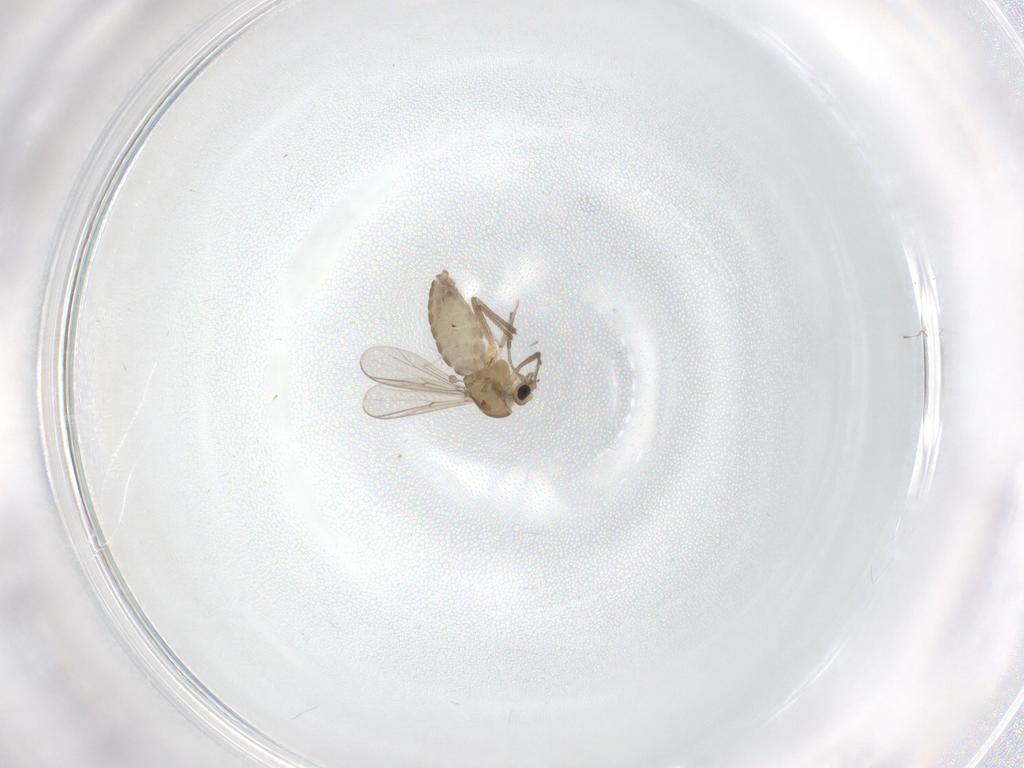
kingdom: Animalia
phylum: Arthropoda
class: Insecta
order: Diptera
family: Chironomidae
